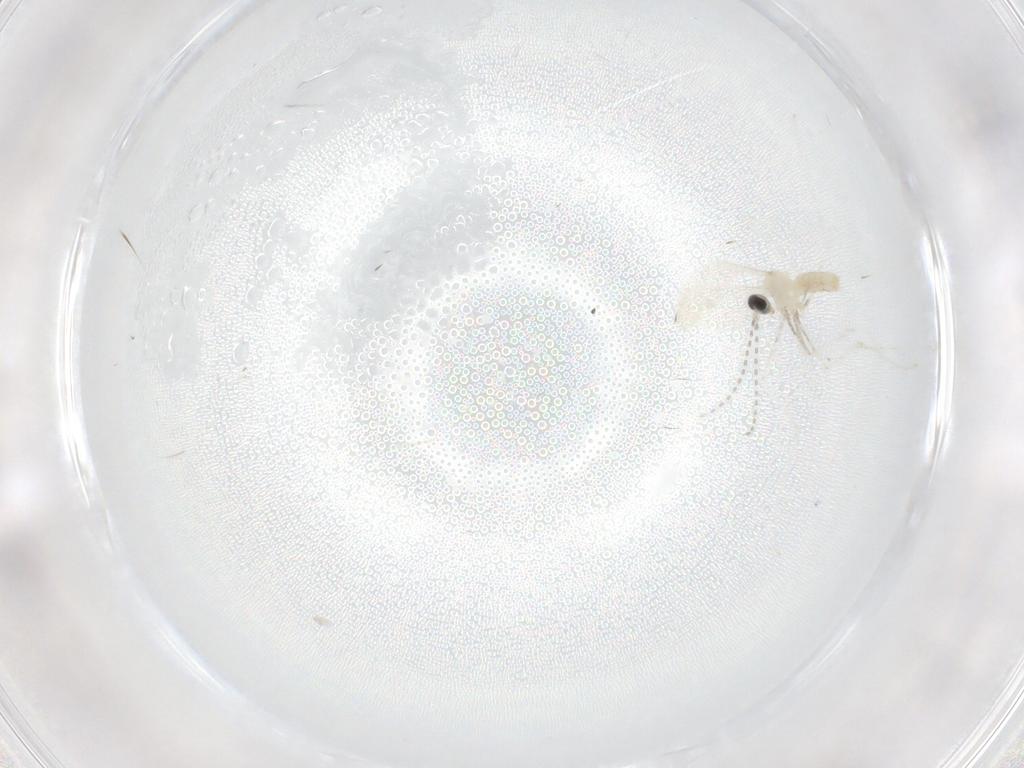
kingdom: Animalia
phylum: Arthropoda
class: Insecta
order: Diptera
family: Cecidomyiidae
